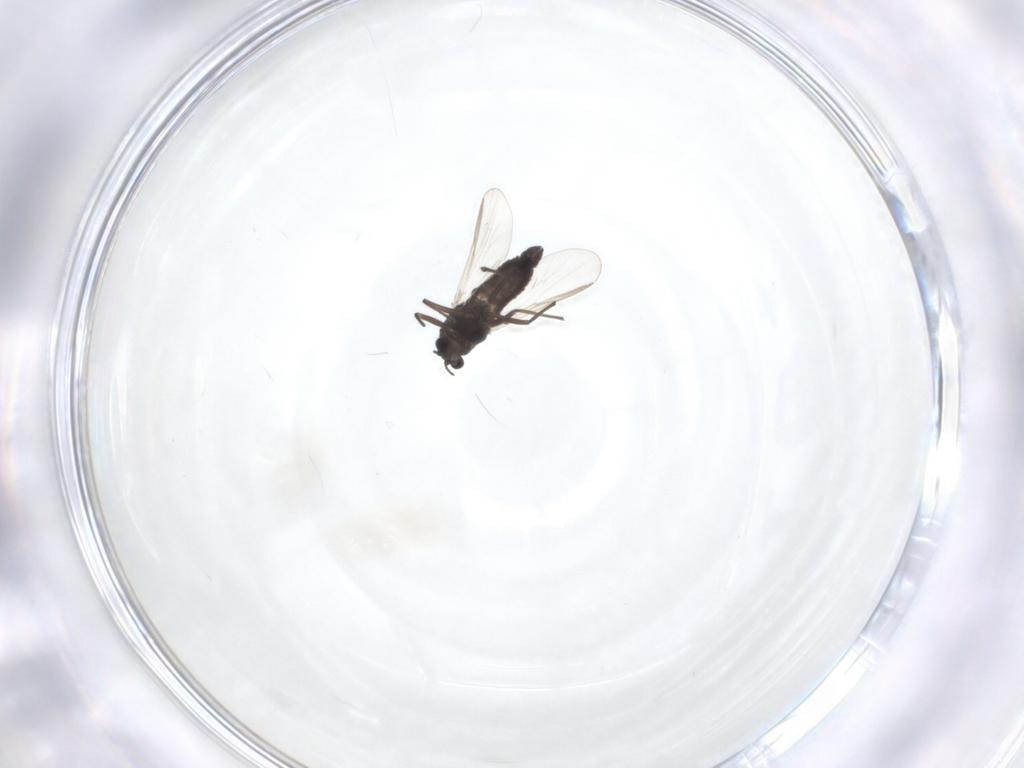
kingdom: Animalia
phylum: Arthropoda
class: Insecta
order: Diptera
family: Chironomidae
